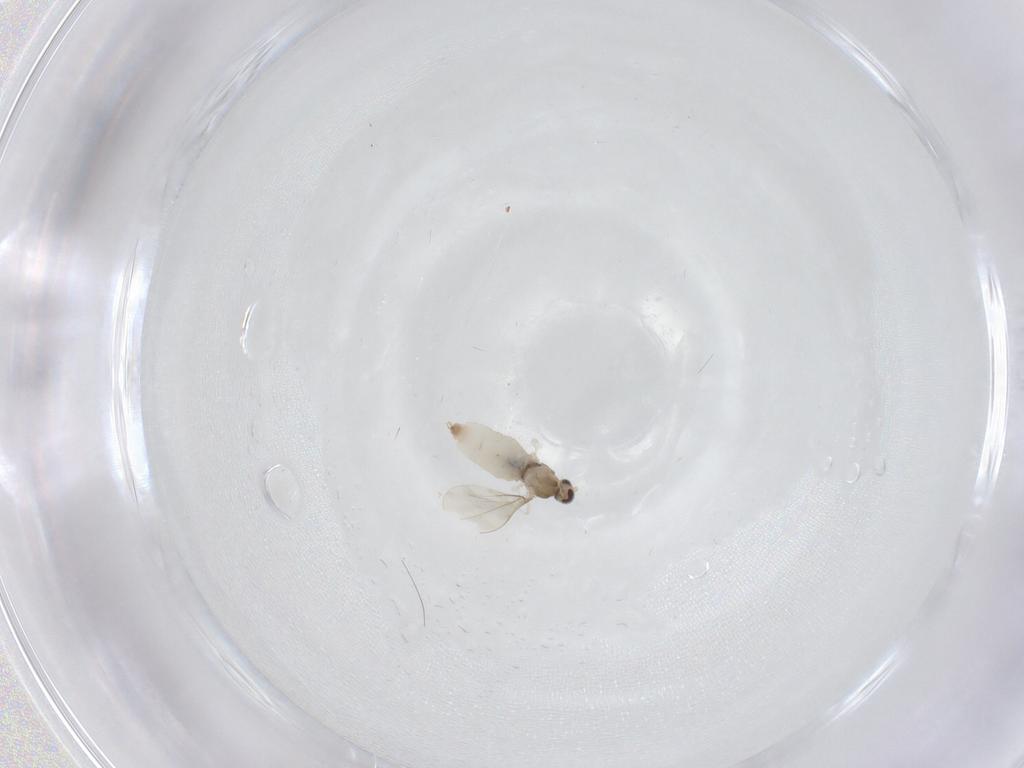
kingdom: Animalia
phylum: Arthropoda
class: Insecta
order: Diptera
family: Cecidomyiidae
